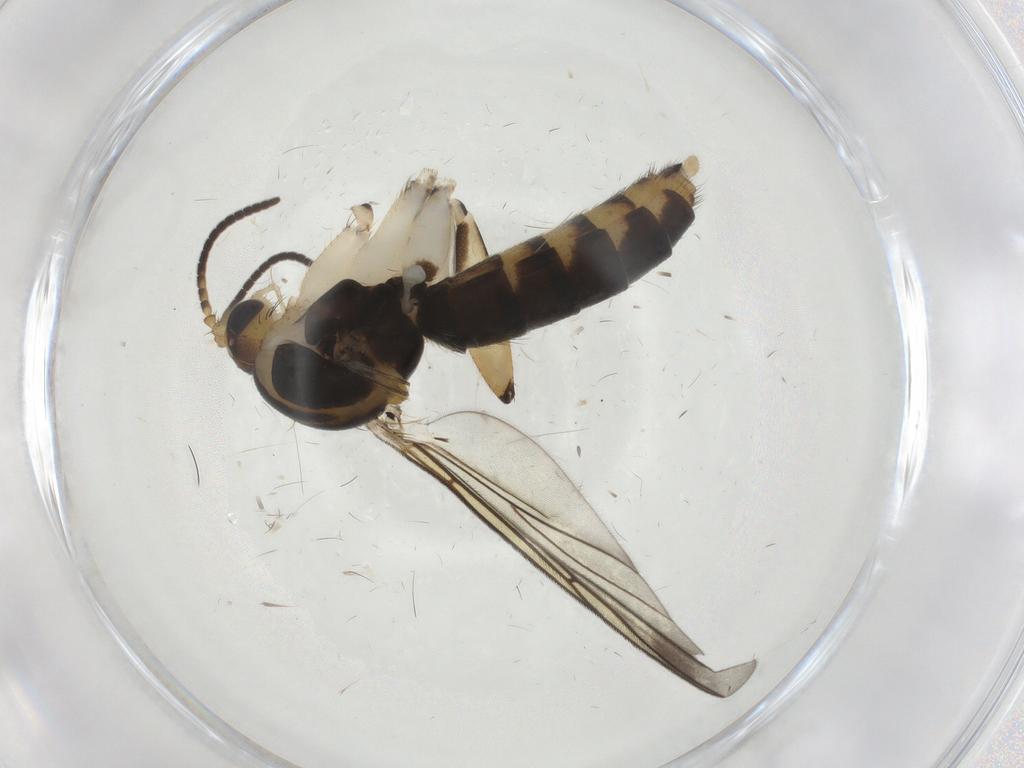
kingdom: Animalia
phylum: Arthropoda
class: Insecta
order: Diptera
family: Mycetophilidae
